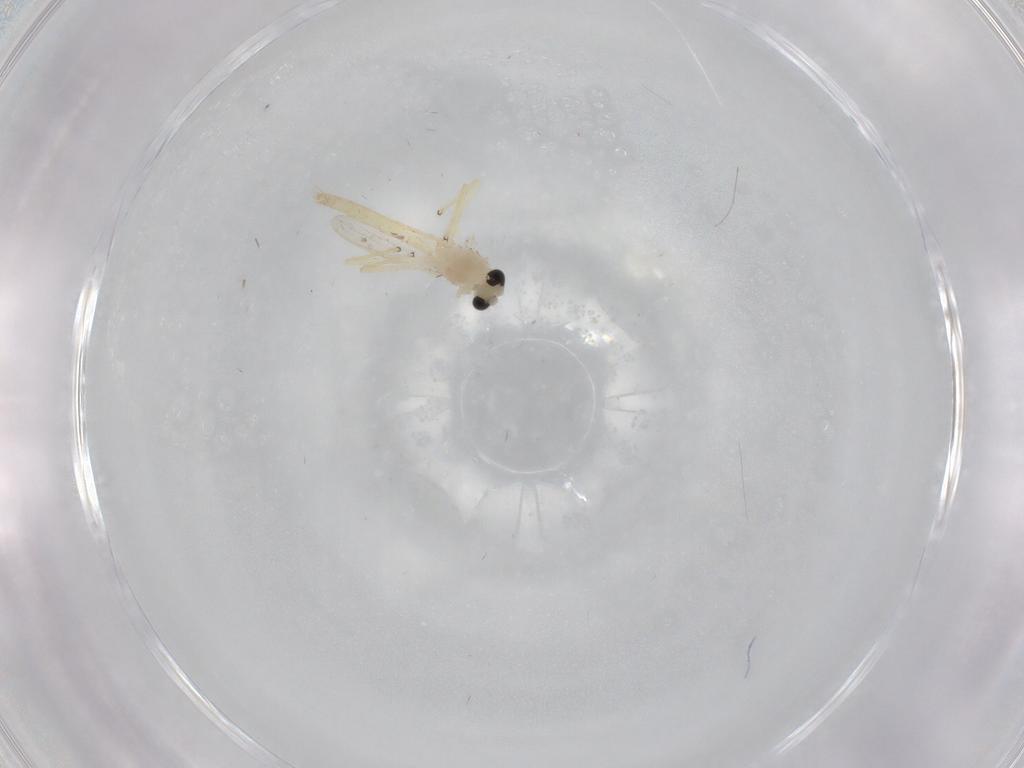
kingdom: Animalia
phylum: Arthropoda
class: Insecta
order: Diptera
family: Chironomidae
